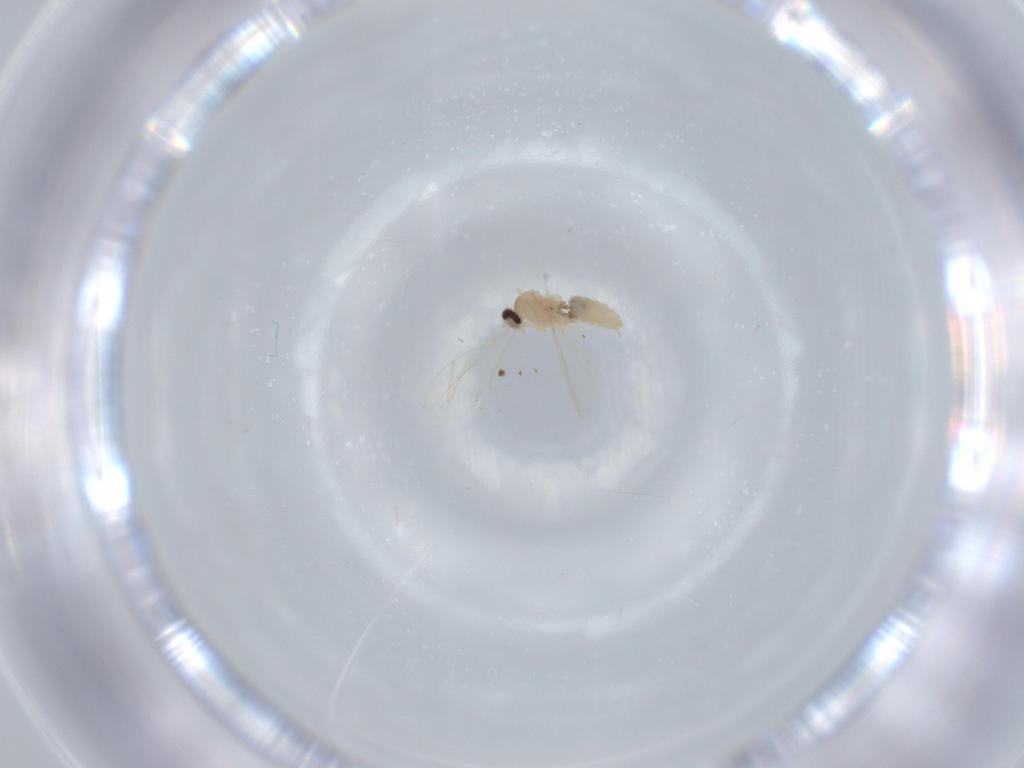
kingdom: Animalia
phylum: Arthropoda
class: Insecta
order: Diptera
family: Cecidomyiidae
